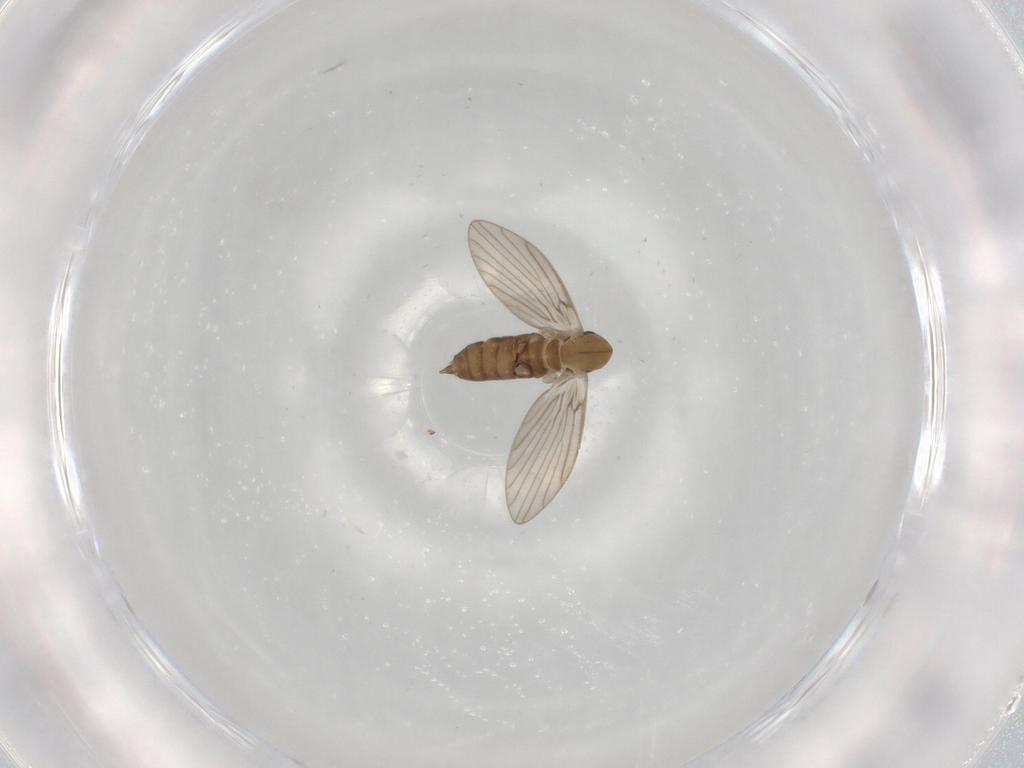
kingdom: Animalia
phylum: Arthropoda
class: Insecta
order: Diptera
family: Psychodidae
